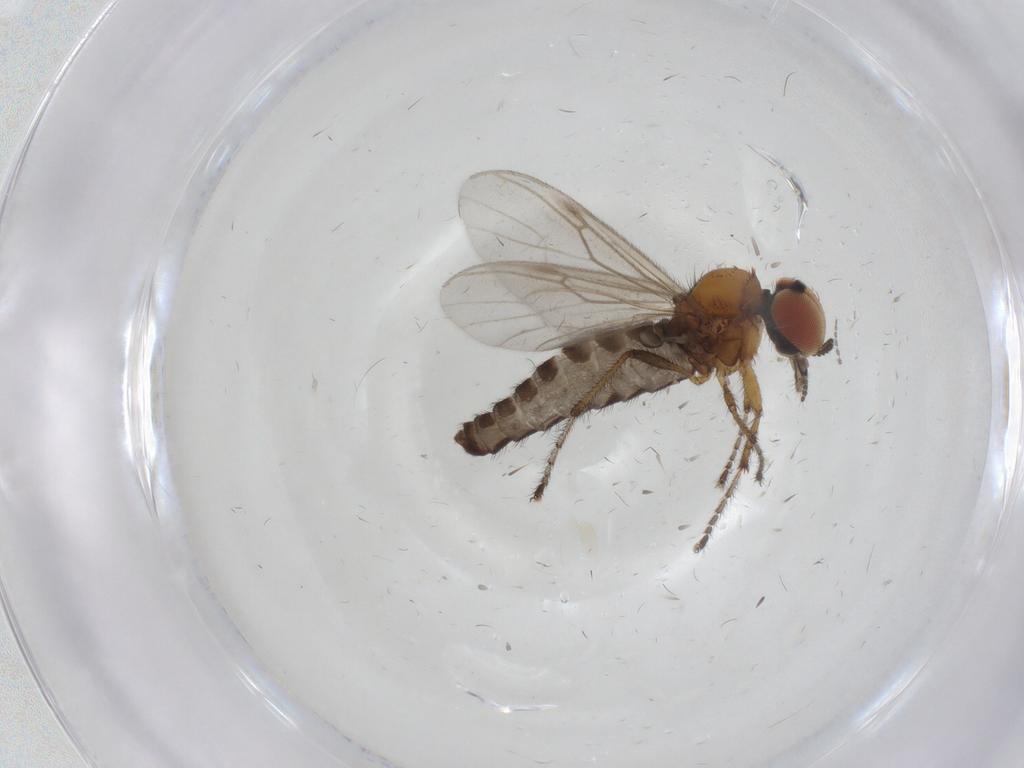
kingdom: Animalia
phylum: Arthropoda
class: Insecta
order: Diptera
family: Bibionidae
